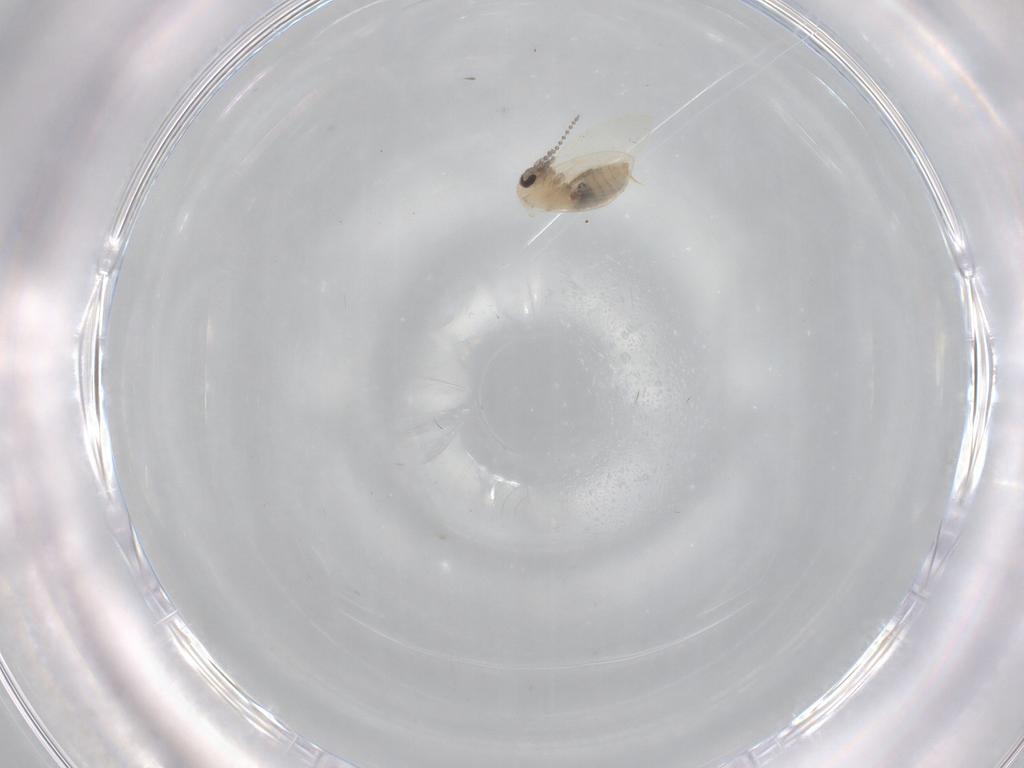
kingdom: Animalia
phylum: Arthropoda
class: Insecta
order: Diptera
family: Psychodidae
